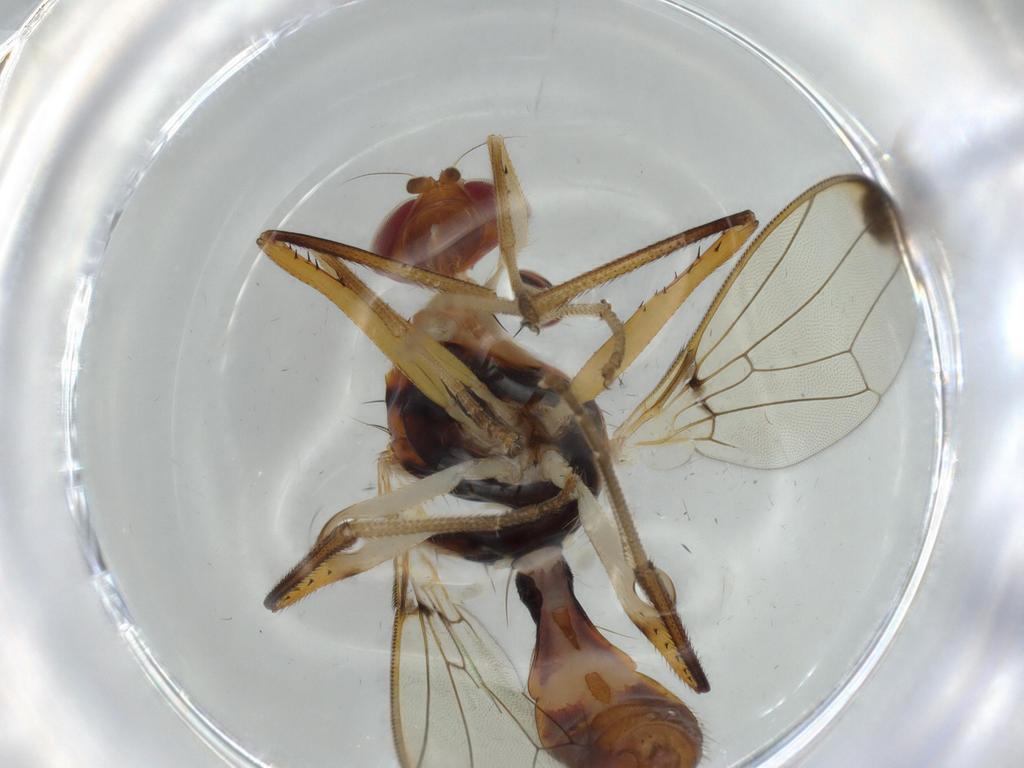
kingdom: Animalia
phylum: Arthropoda
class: Insecta
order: Diptera
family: Richardiidae
